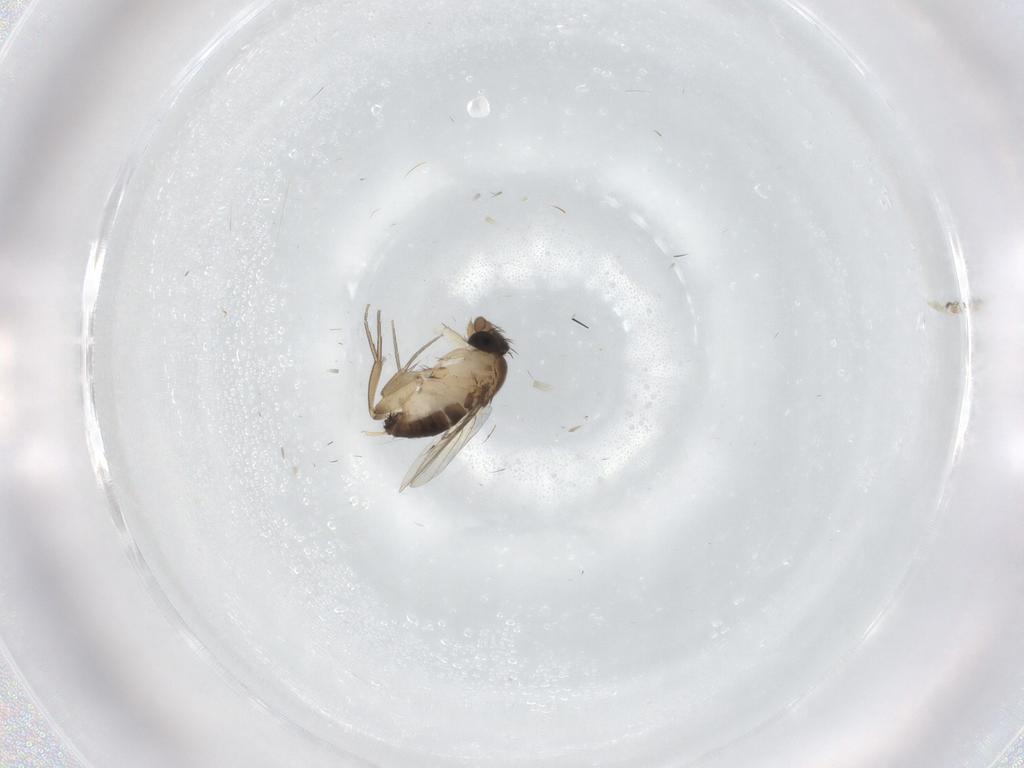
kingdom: Animalia
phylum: Arthropoda
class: Insecta
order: Diptera
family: Phoridae
